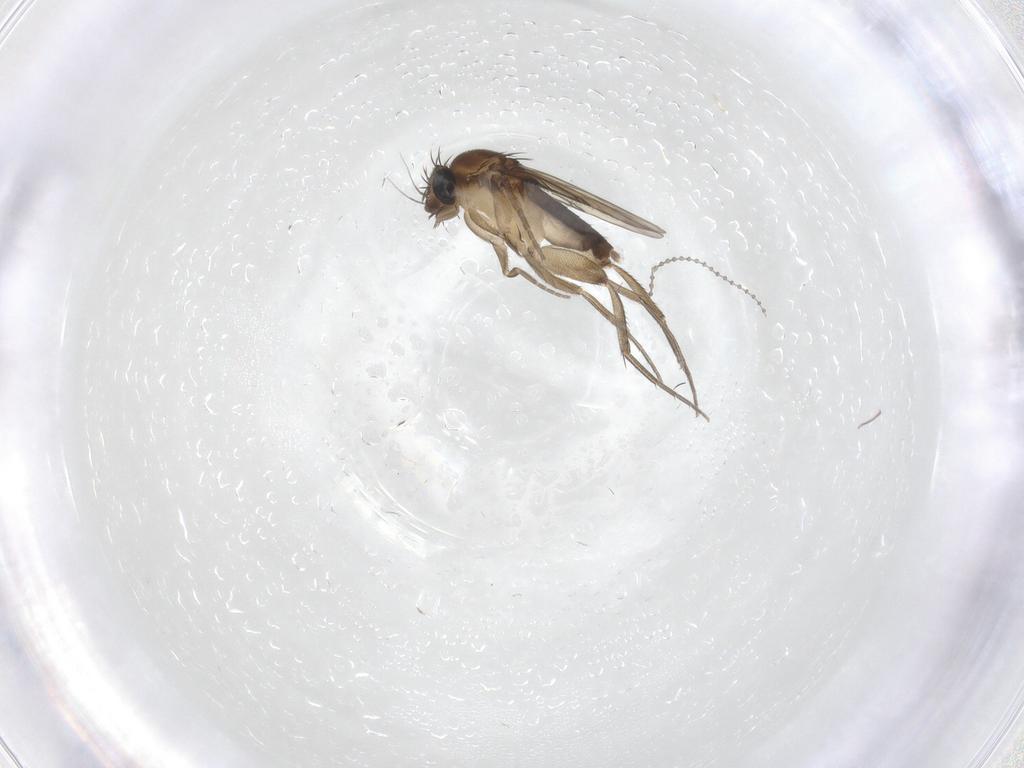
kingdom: Animalia
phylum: Arthropoda
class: Insecta
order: Diptera
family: Phoridae
